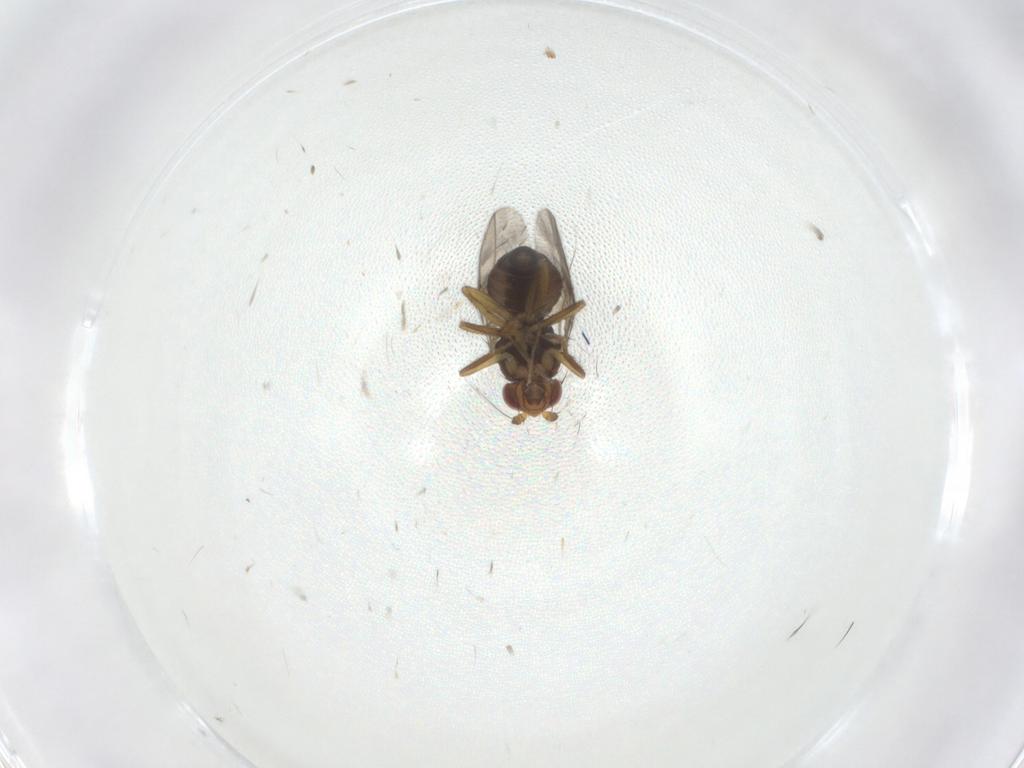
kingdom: Animalia
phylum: Arthropoda
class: Insecta
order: Diptera
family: Sphaeroceridae
